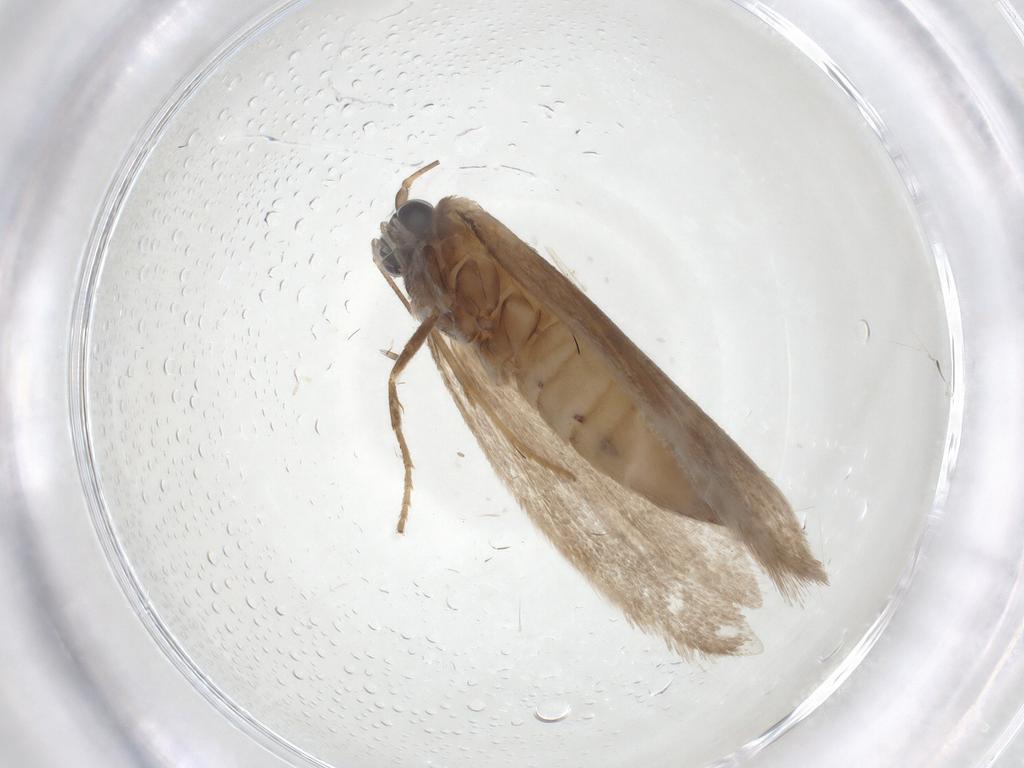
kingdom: Animalia
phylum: Arthropoda
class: Insecta
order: Lepidoptera
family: Incurvariidae
